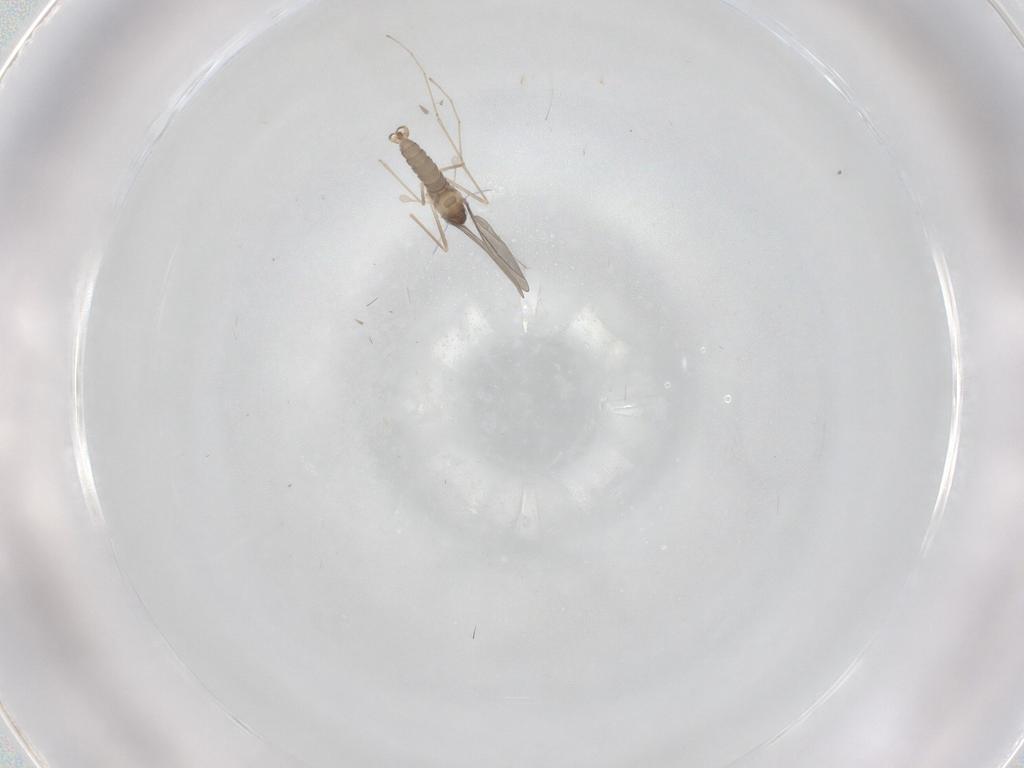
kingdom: Animalia
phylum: Arthropoda
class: Insecta
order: Diptera
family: Cecidomyiidae
